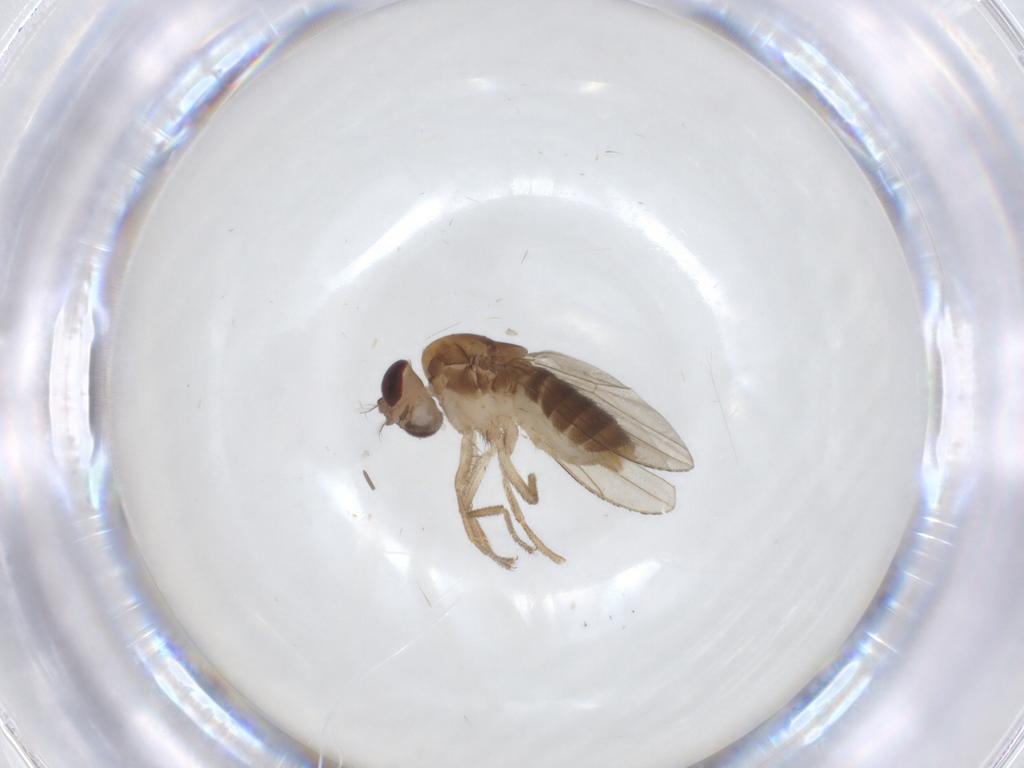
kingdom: Animalia
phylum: Arthropoda
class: Insecta
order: Diptera
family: Drosophilidae
